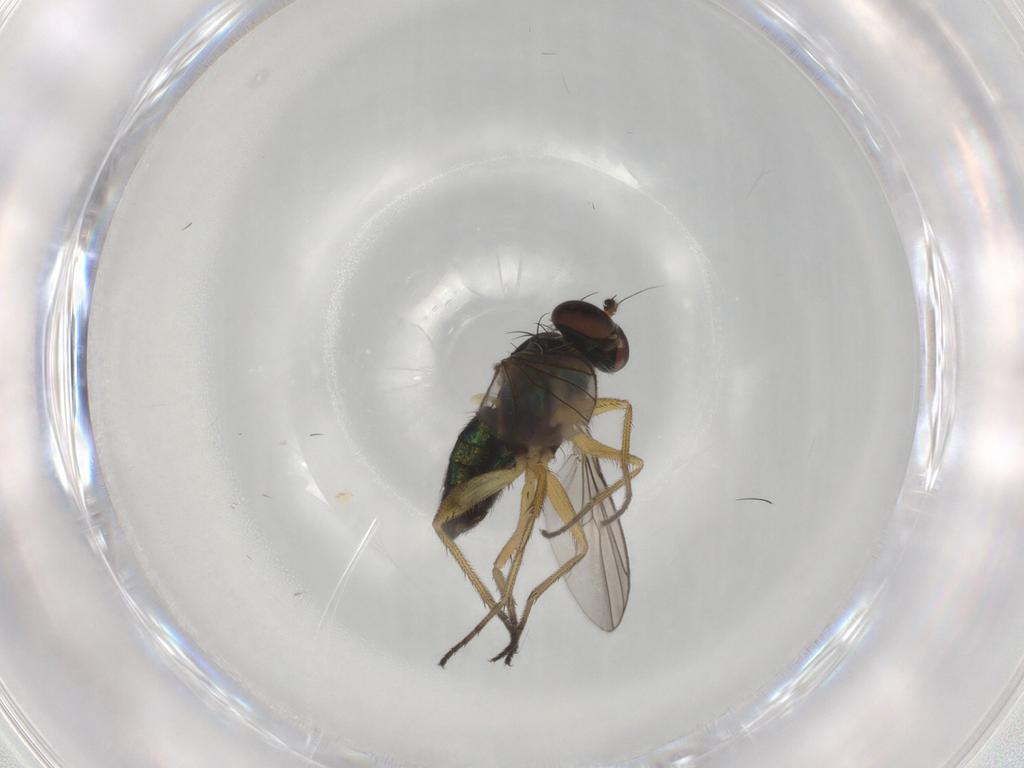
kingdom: Animalia
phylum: Arthropoda
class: Insecta
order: Diptera
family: Dolichopodidae
